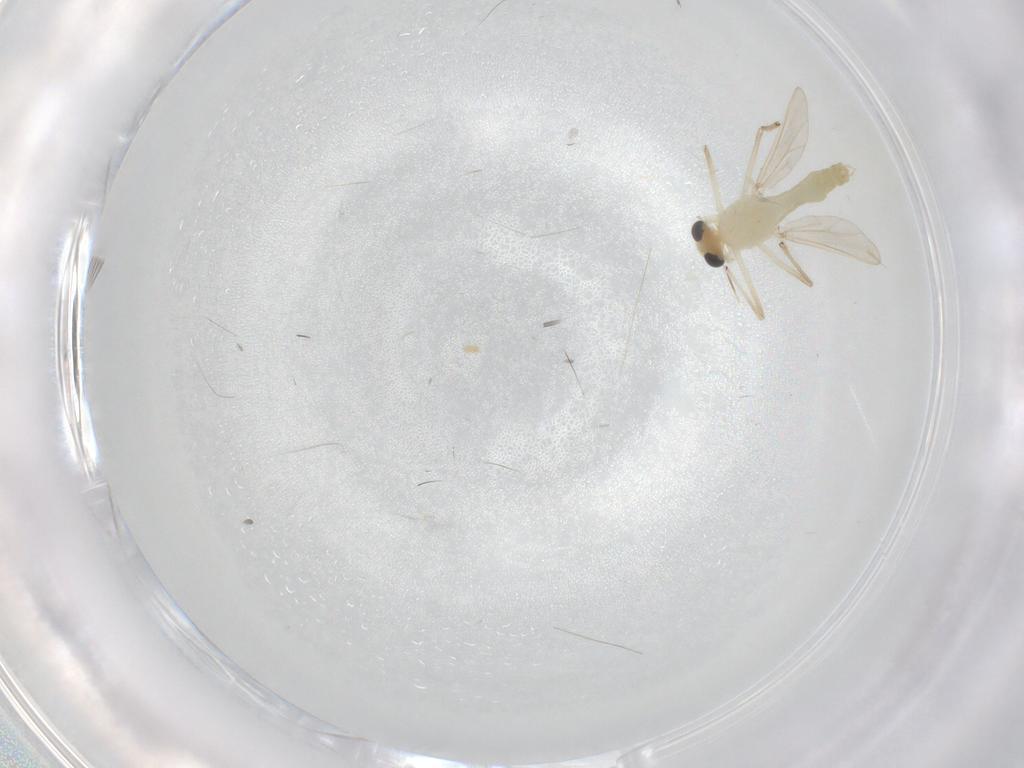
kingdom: Animalia
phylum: Arthropoda
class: Insecta
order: Diptera
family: Chironomidae
